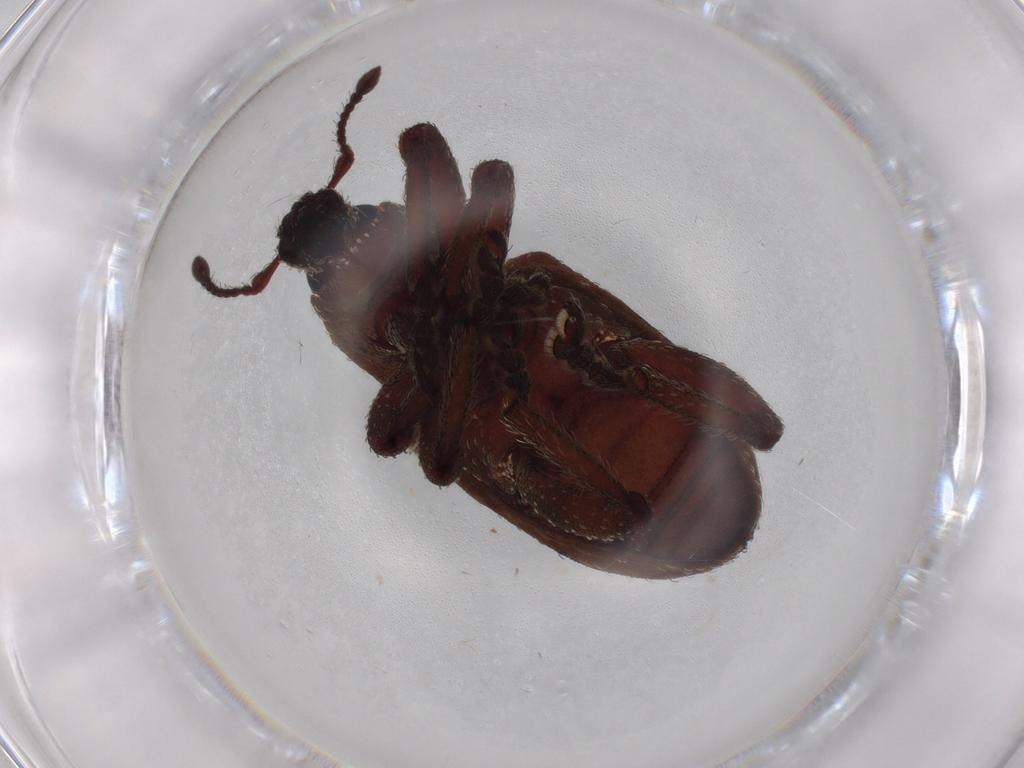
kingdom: Animalia
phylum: Arthropoda
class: Insecta
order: Coleoptera
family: Curculionidae
